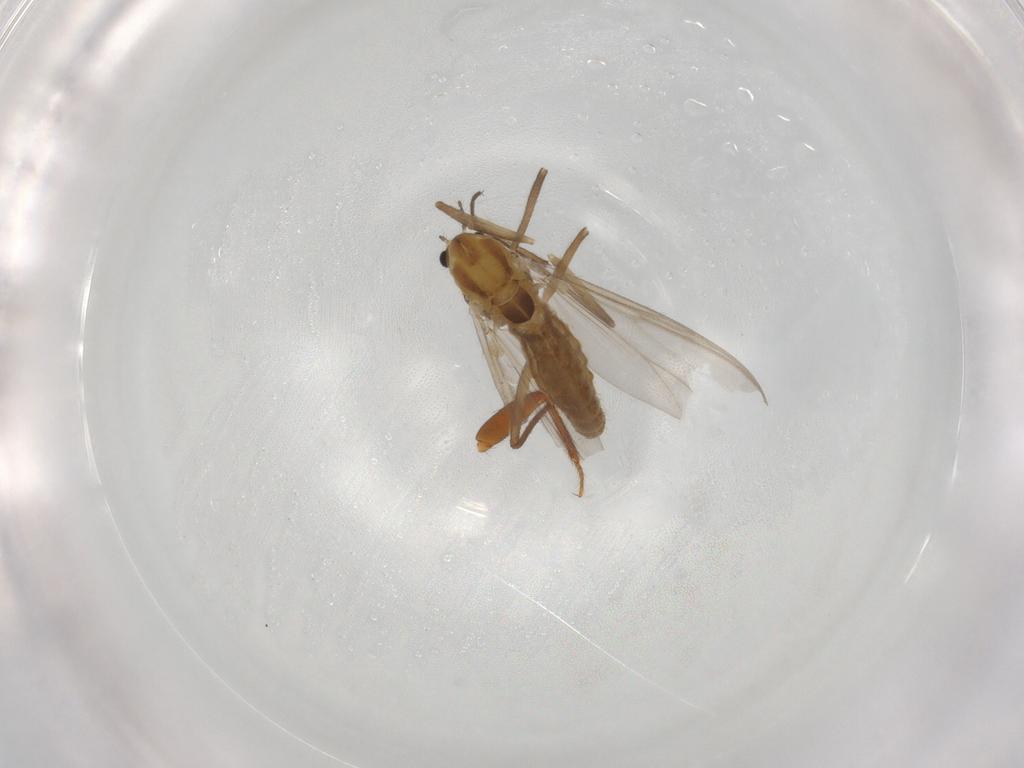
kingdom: Animalia
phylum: Arthropoda
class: Insecta
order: Diptera
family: Chironomidae
